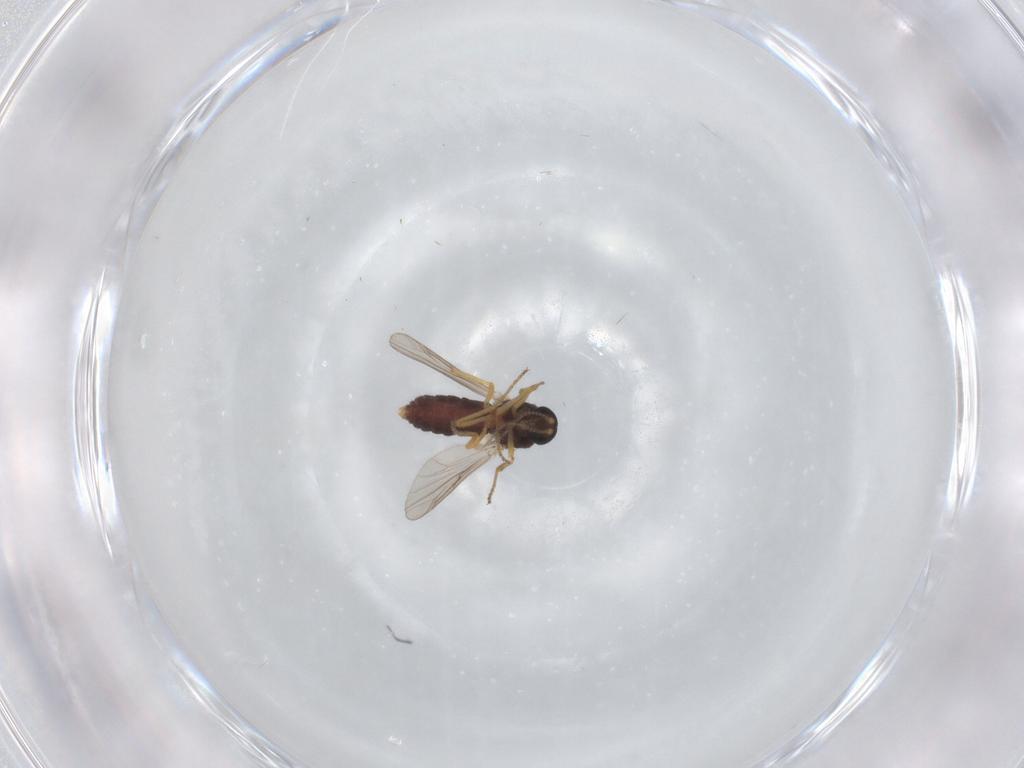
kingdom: Animalia
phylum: Arthropoda
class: Insecta
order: Diptera
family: Ceratopogonidae
